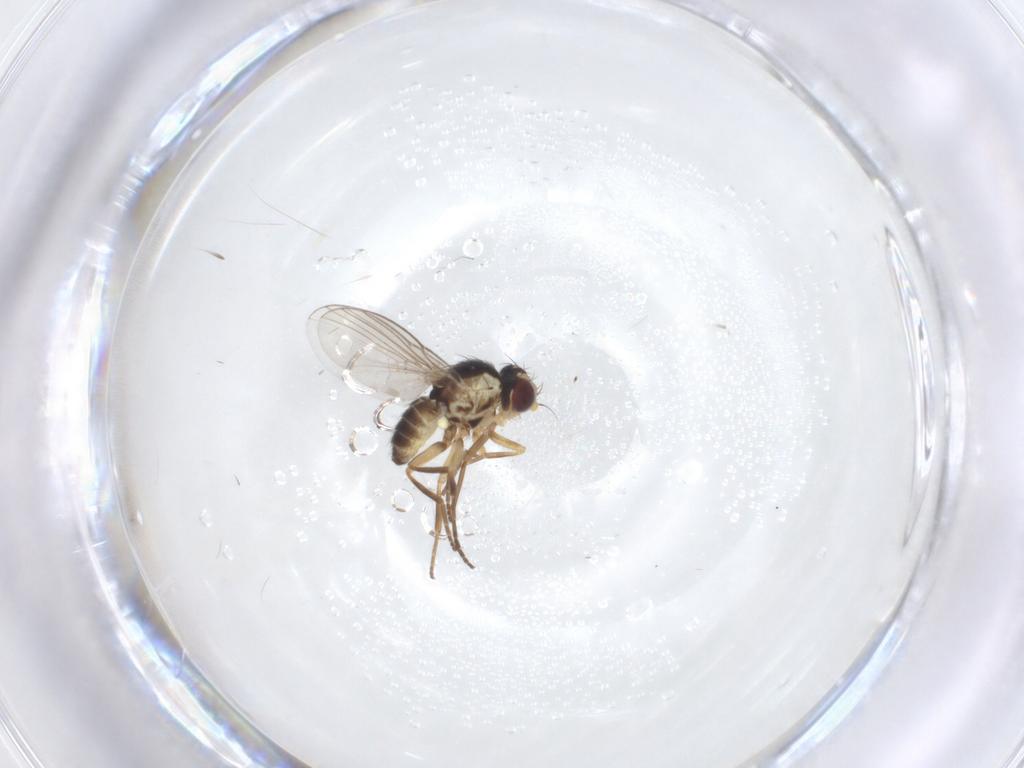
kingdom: Animalia
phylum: Arthropoda
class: Insecta
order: Diptera
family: Agromyzidae
